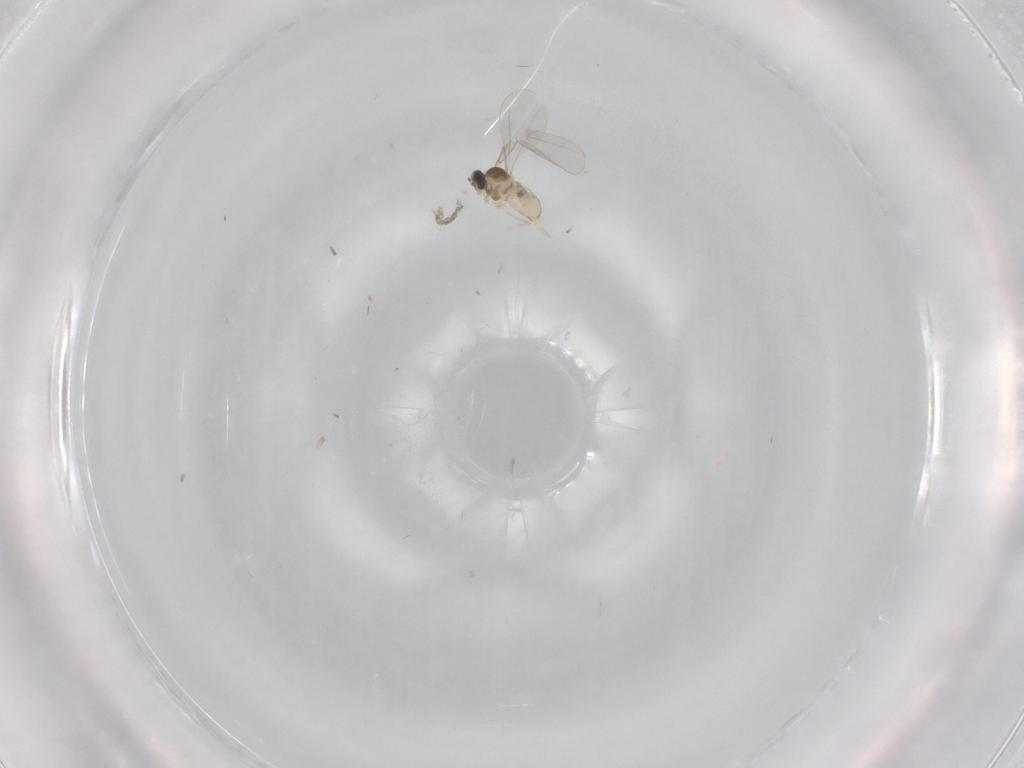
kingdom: Animalia
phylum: Arthropoda
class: Insecta
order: Diptera
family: Cecidomyiidae
